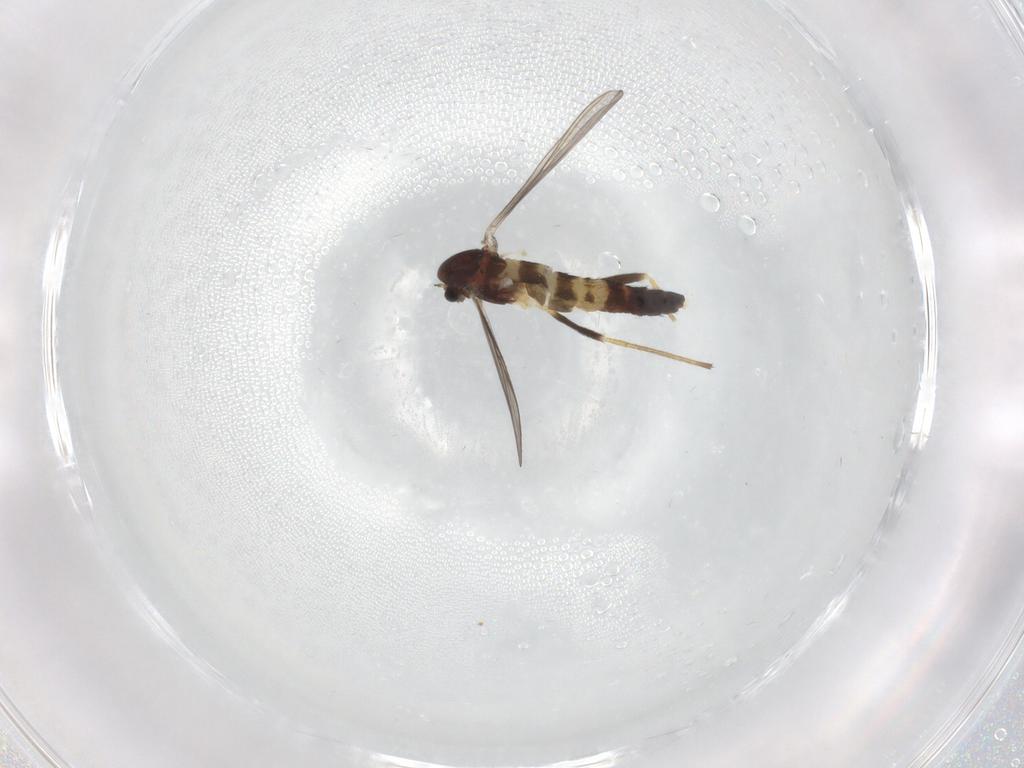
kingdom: Animalia
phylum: Arthropoda
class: Insecta
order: Diptera
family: Chironomidae
